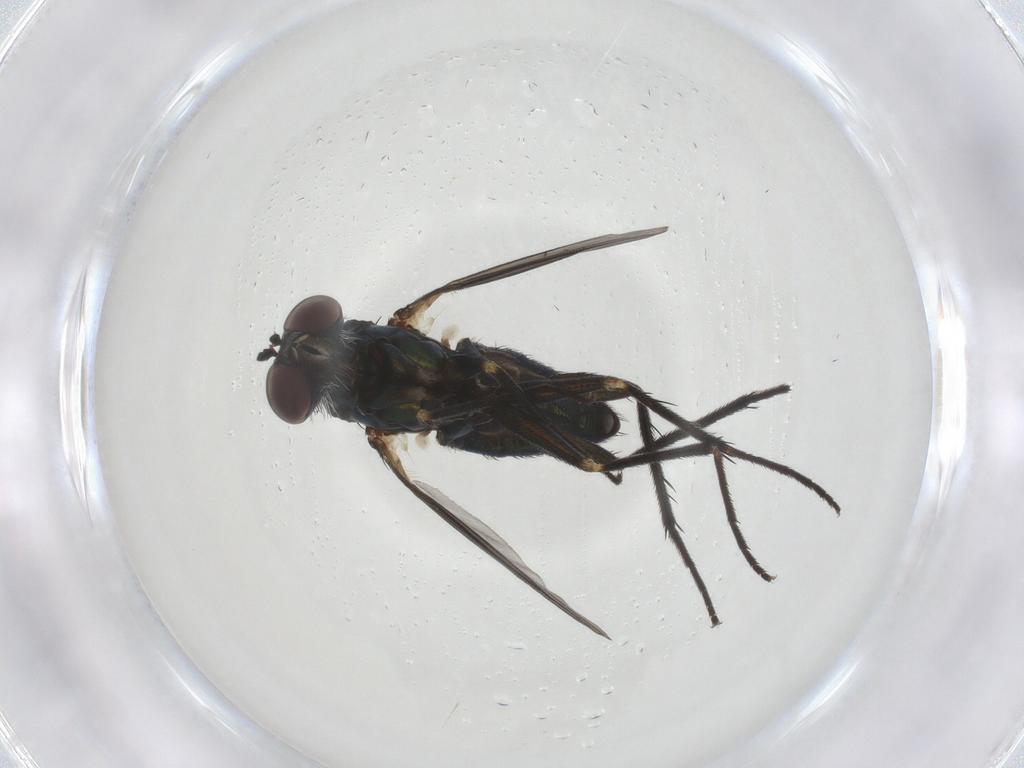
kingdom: Animalia
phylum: Arthropoda
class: Insecta
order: Diptera
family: Dolichopodidae
